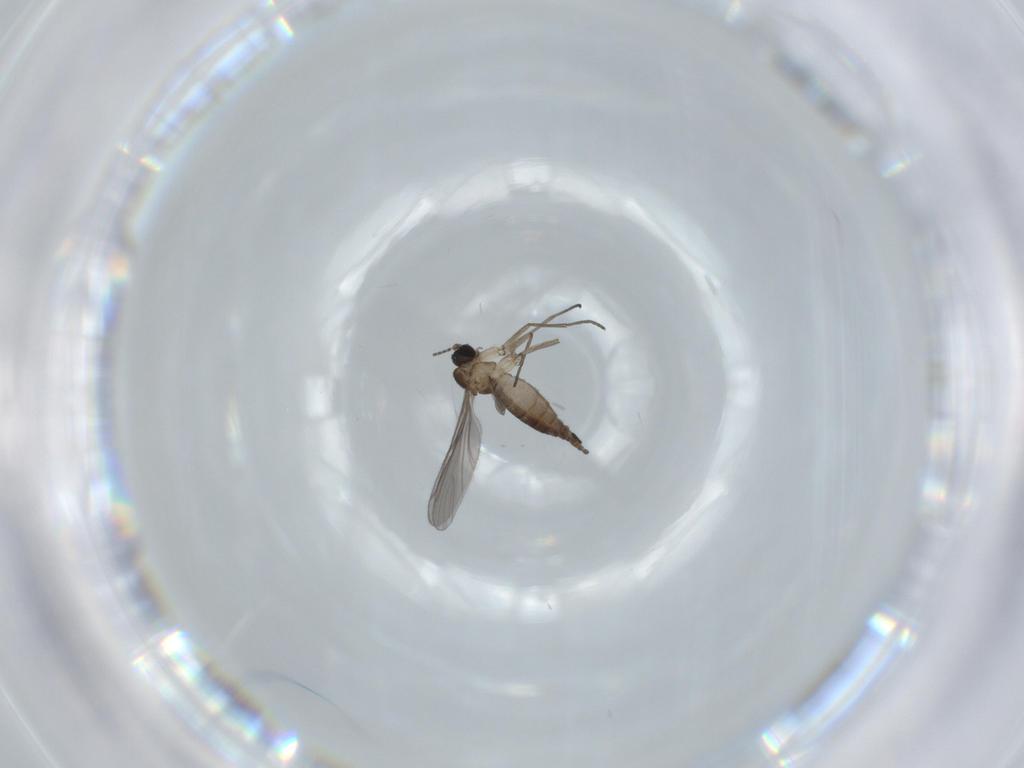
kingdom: Animalia
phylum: Arthropoda
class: Insecta
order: Diptera
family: Sciaridae
